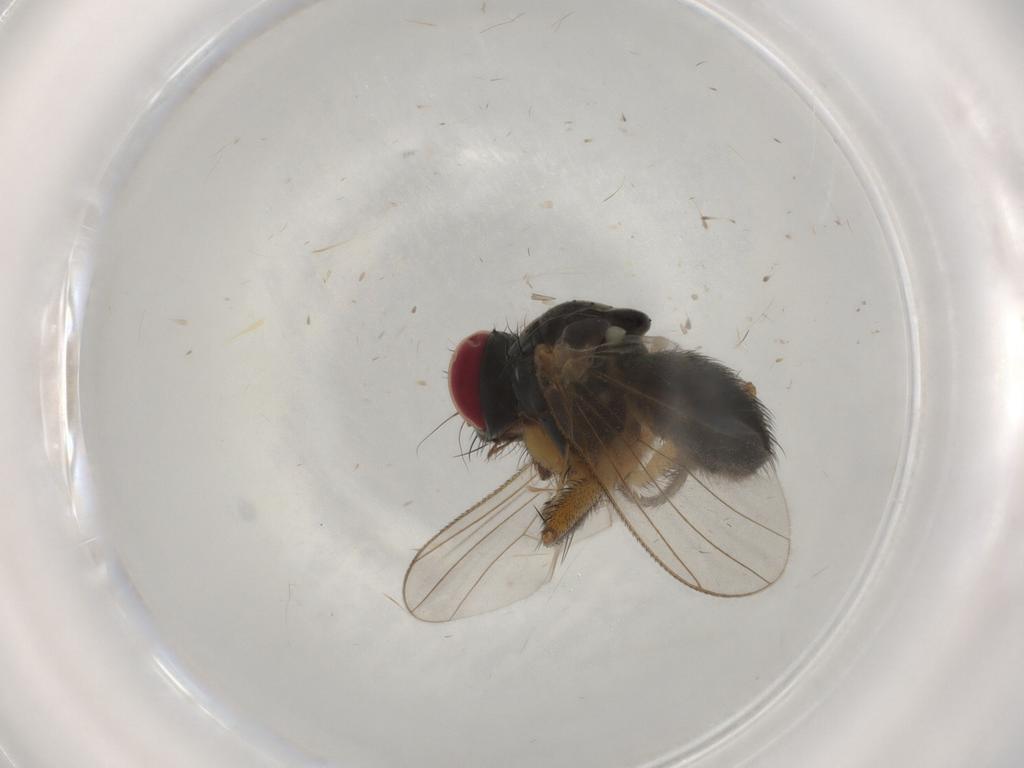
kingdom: Animalia
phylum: Arthropoda
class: Insecta
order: Diptera
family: Muscidae
